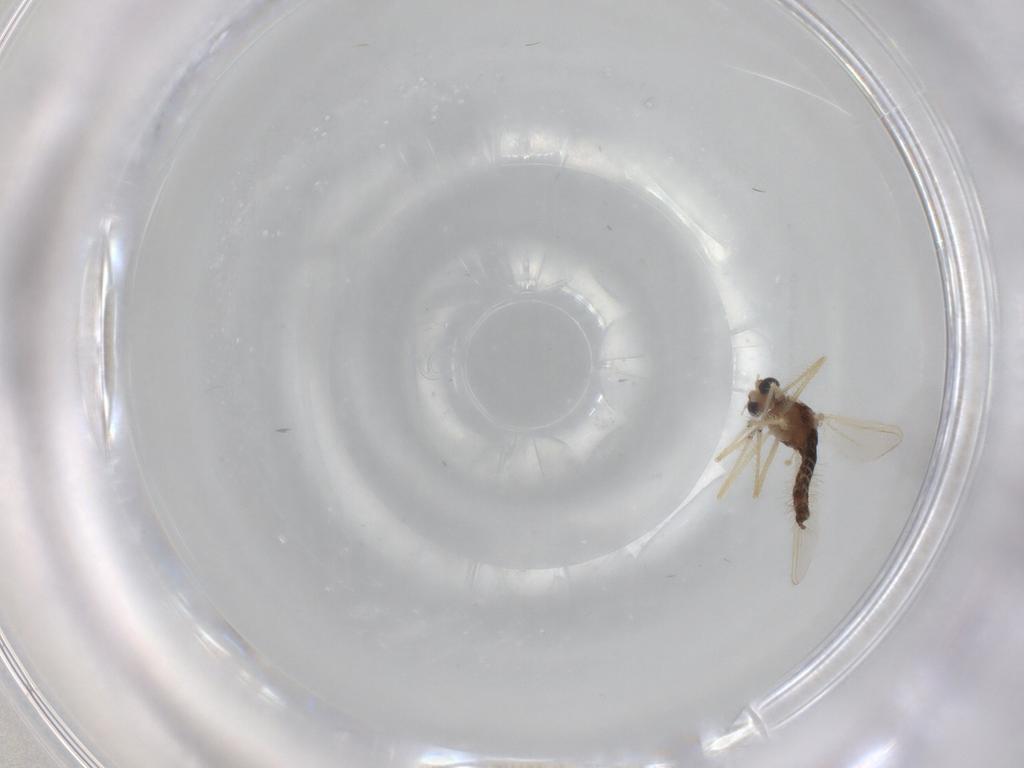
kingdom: Animalia
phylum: Arthropoda
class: Insecta
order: Diptera
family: Chironomidae
